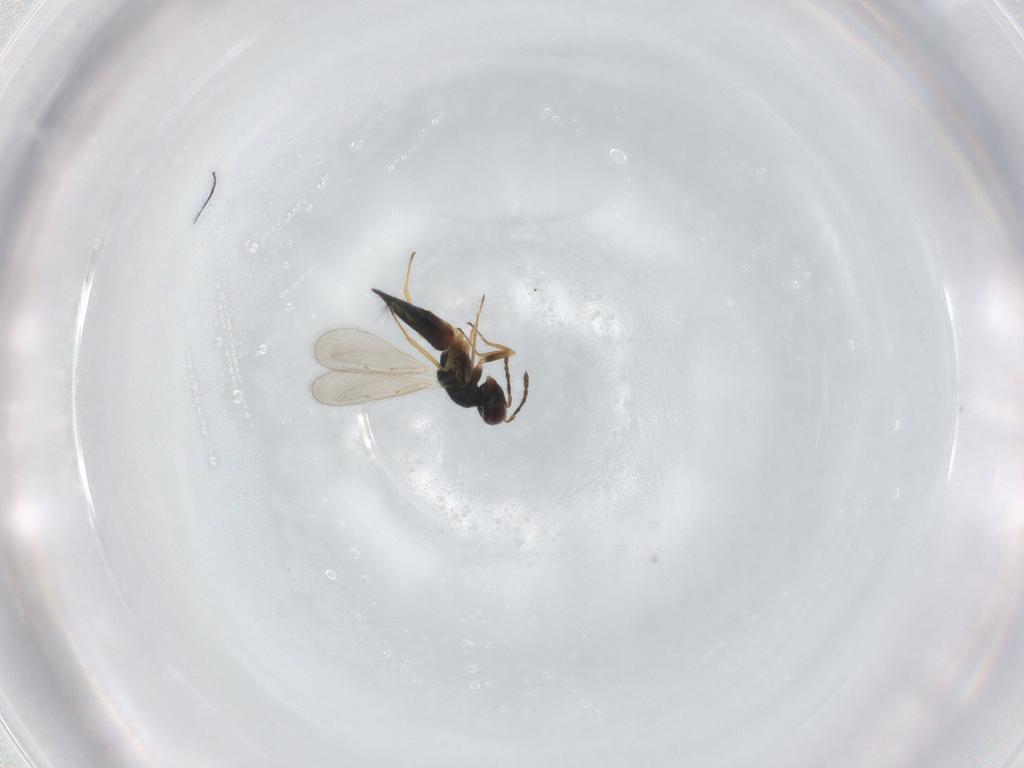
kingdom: Animalia
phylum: Arthropoda
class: Insecta
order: Hymenoptera
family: Eulophidae
